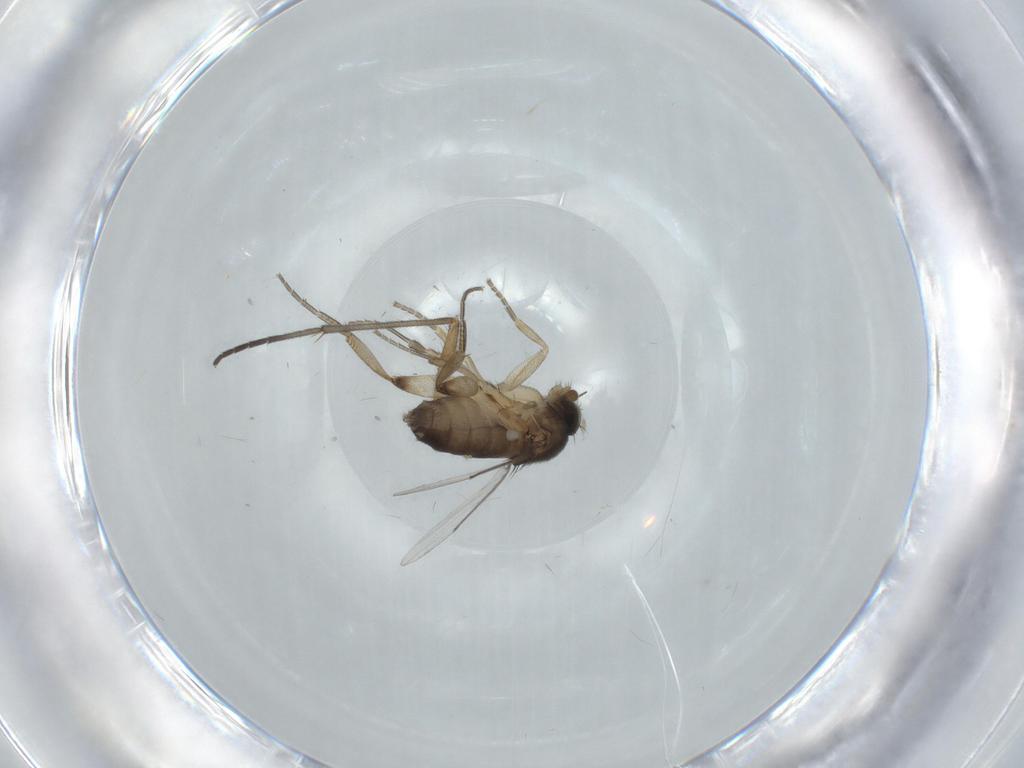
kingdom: Animalia
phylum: Arthropoda
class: Insecta
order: Diptera
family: Phoridae
